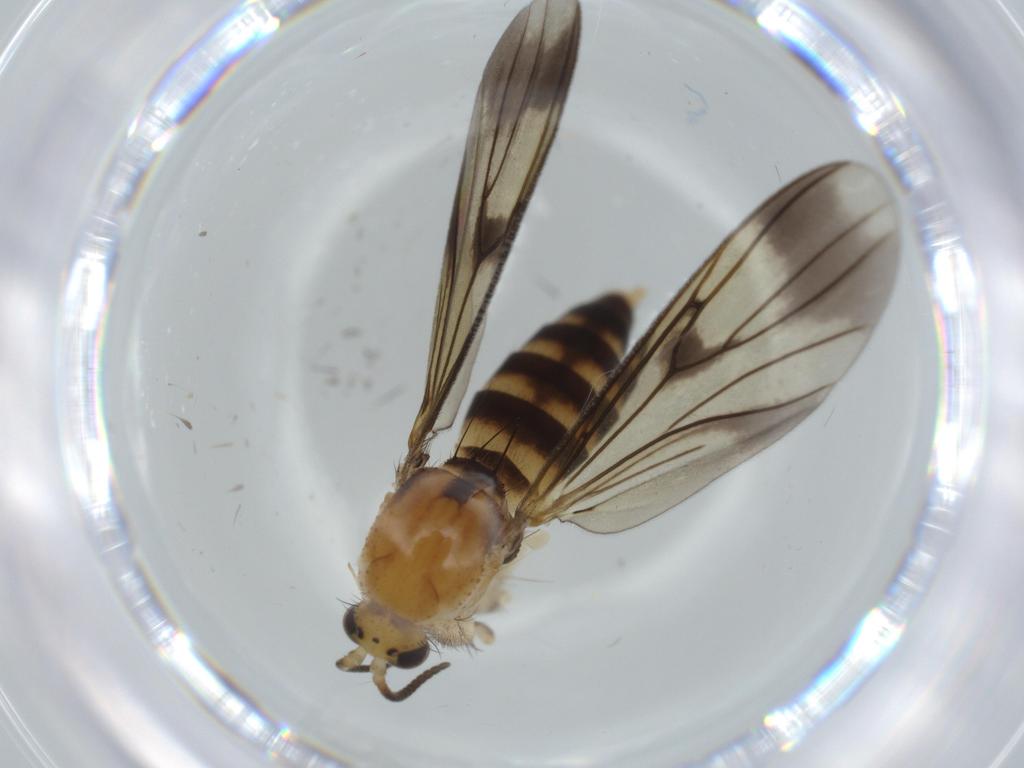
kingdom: Animalia
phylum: Arthropoda
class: Insecta
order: Diptera
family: Mycetophilidae
